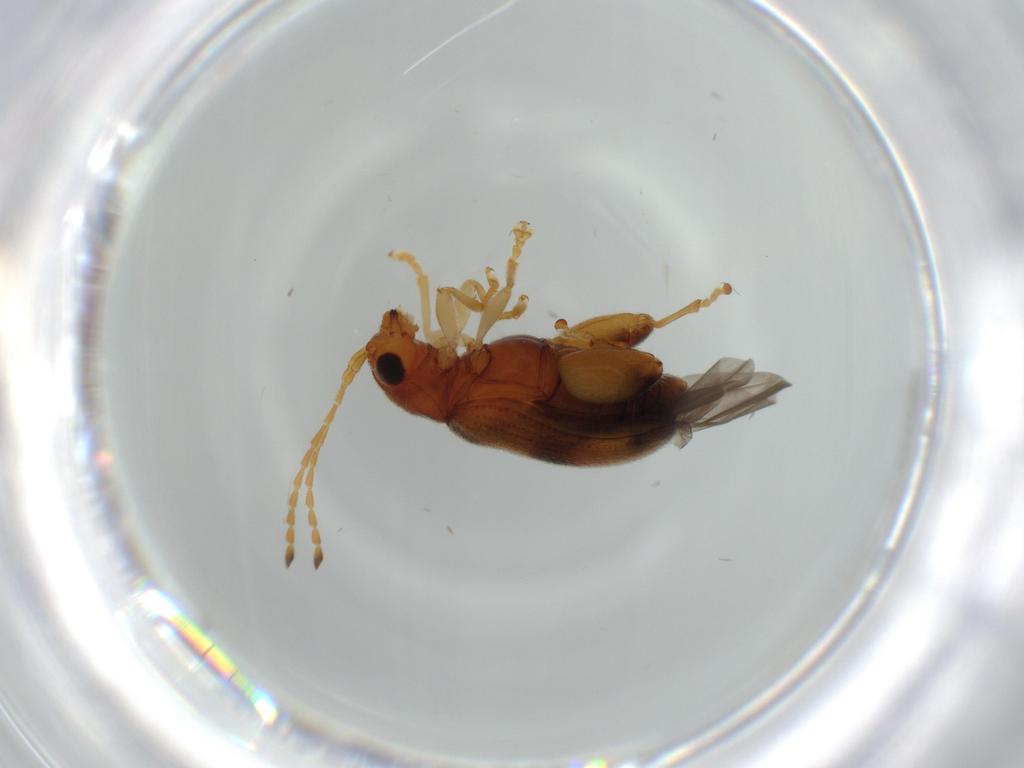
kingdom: Animalia
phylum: Arthropoda
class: Insecta
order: Coleoptera
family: Chrysomelidae
